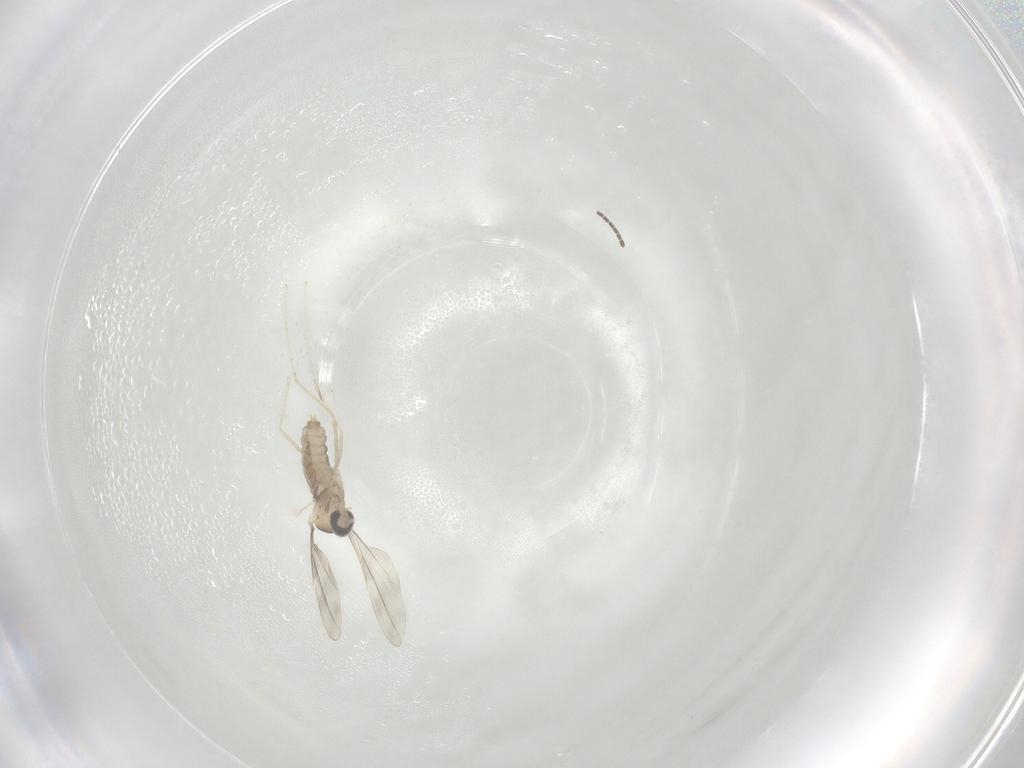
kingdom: Animalia
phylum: Arthropoda
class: Insecta
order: Diptera
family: Sciaridae
